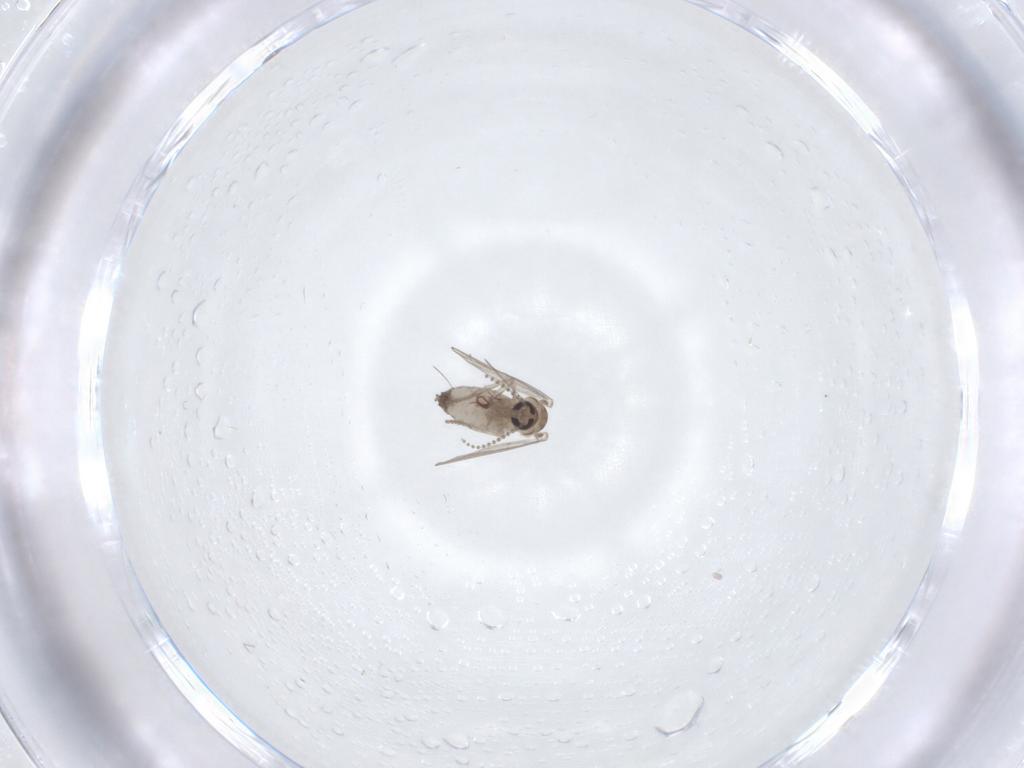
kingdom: Animalia
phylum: Arthropoda
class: Insecta
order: Diptera
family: Psychodidae
